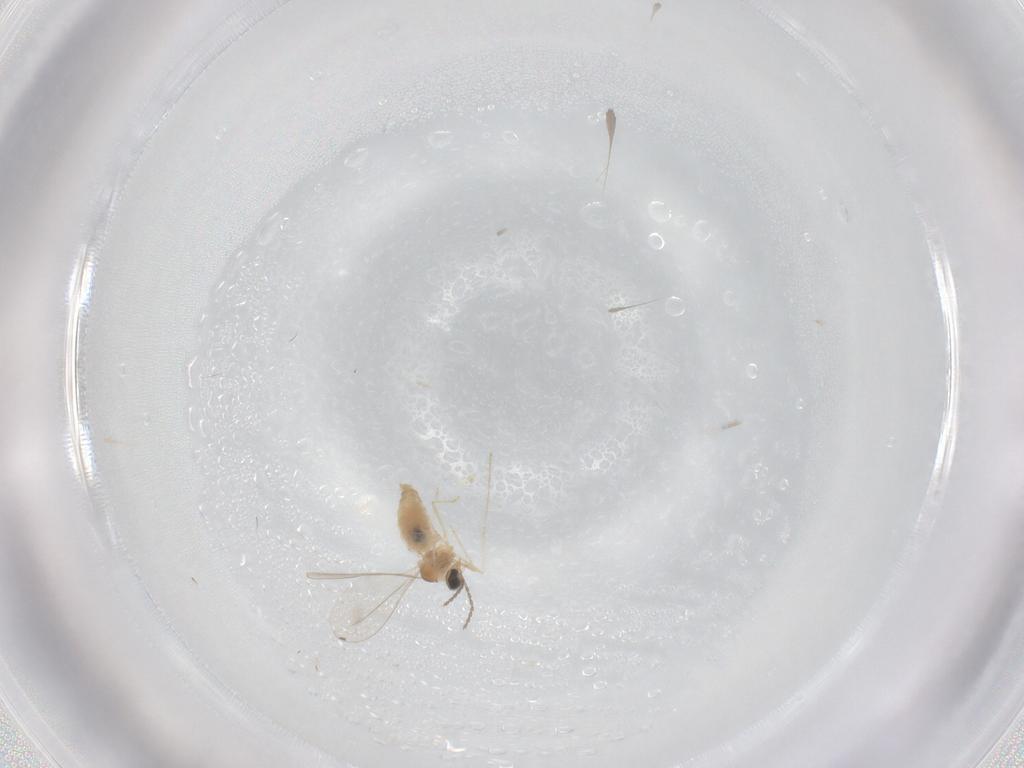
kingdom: Animalia
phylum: Arthropoda
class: Insecta
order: Diptera
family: Cecidomyiidae
